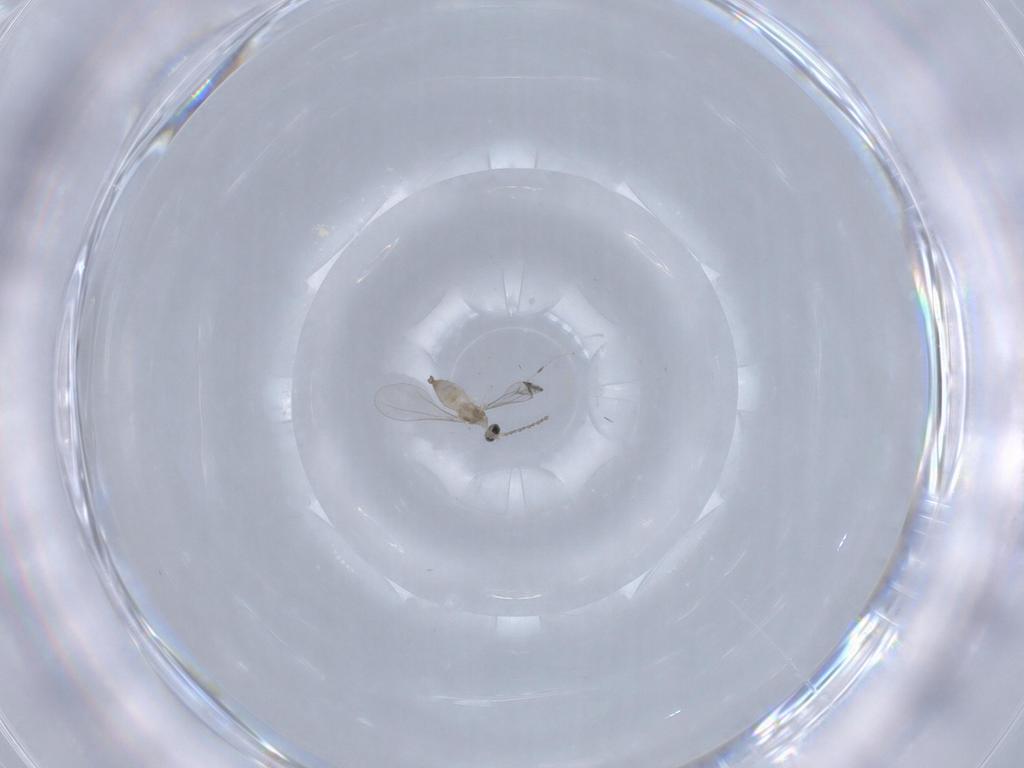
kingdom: Animalia
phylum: Arthropoda
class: Insecta
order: Diptera
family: Cecidomyiidae
